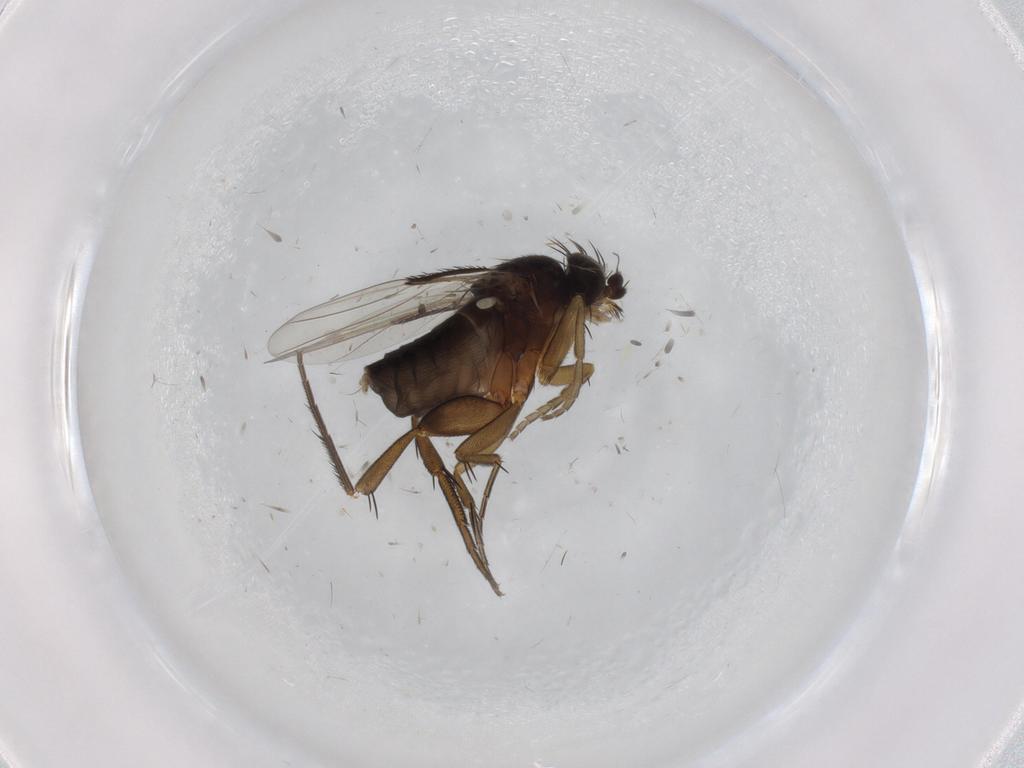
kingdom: Animalia
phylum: Arthropoda
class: Insecta
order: Diptera
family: Phoridae
